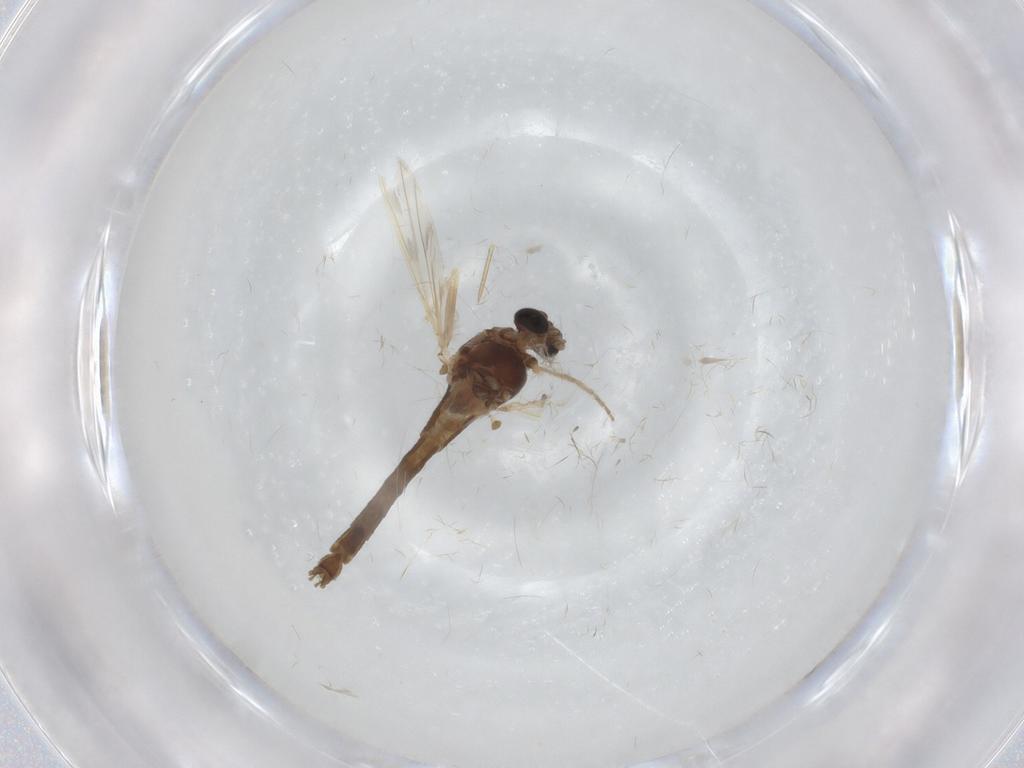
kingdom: Animalia
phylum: Arthropoda
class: Insecta
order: Diptera
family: Chironomidae
